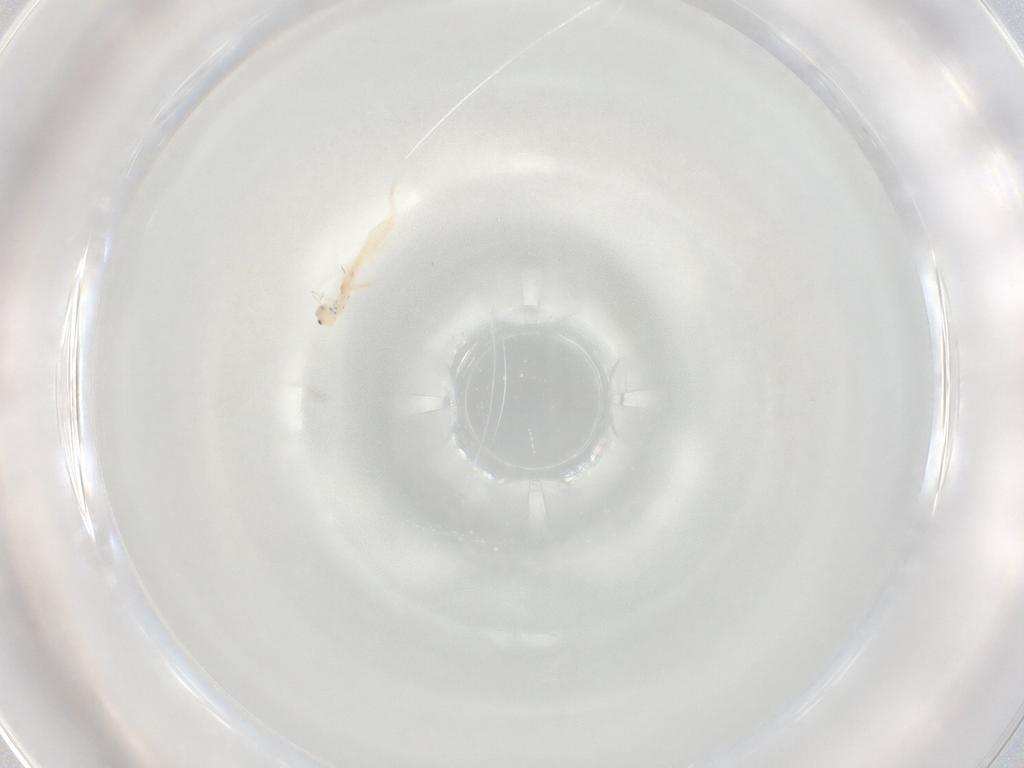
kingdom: Animalia
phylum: Arthropoda
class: Collembola
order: Entomobryomorpha
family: Entomobryidae
